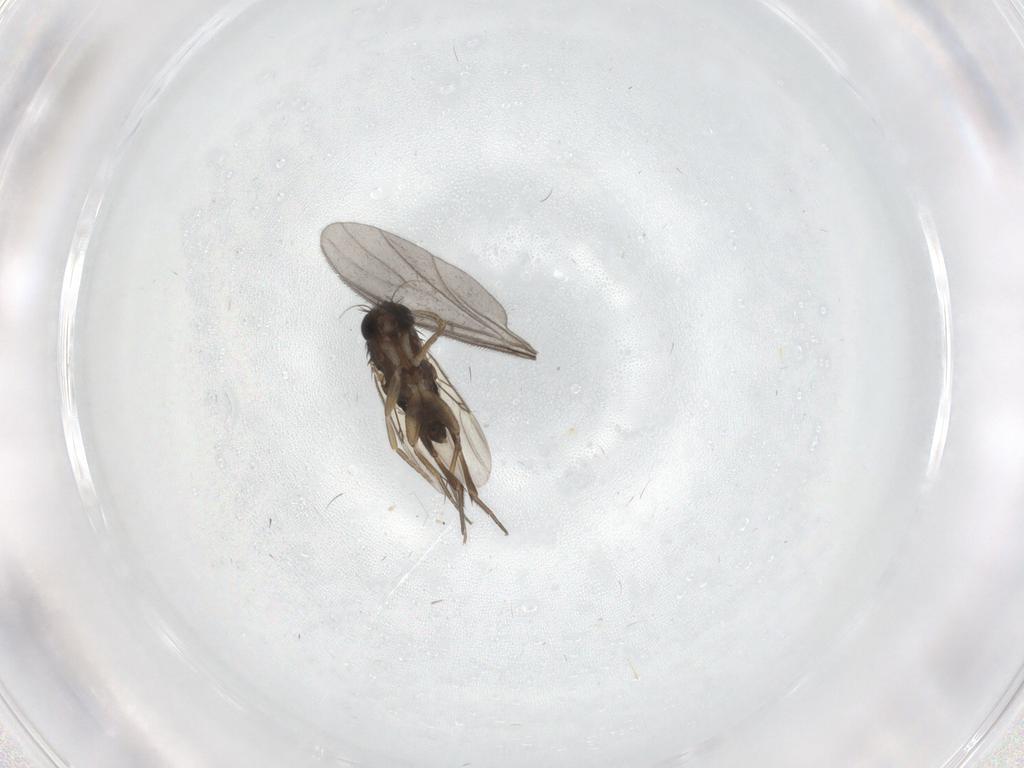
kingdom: Animalia
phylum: Arthropoda
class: Insecta
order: Diptera
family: Phoridae
